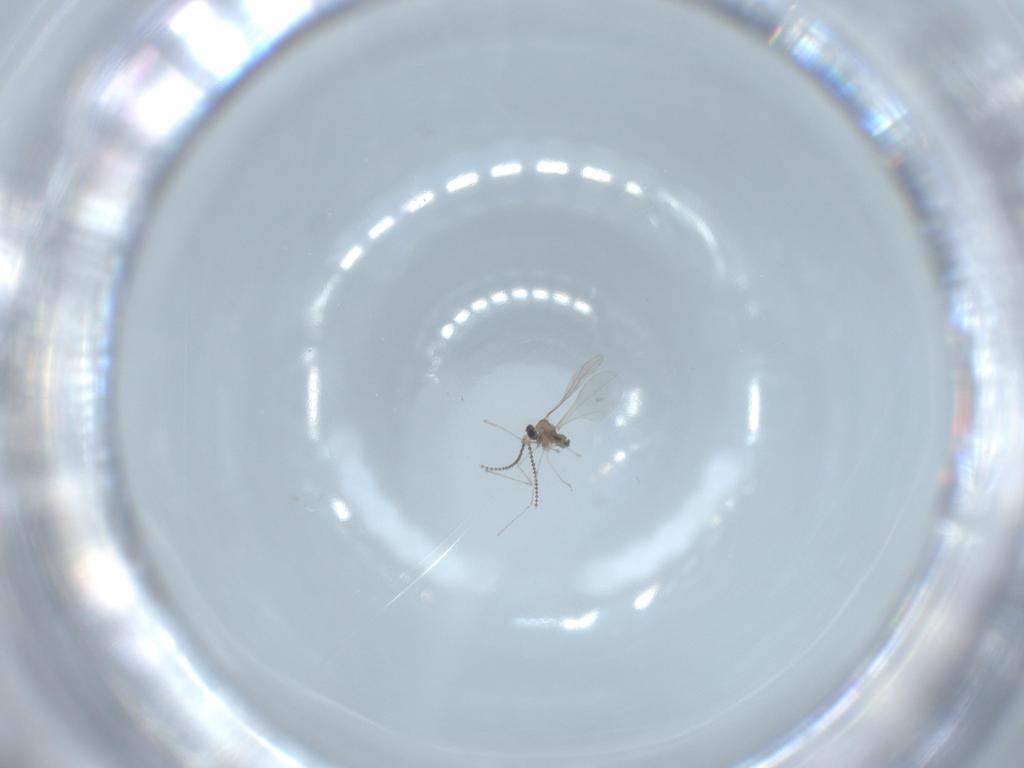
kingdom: Animalia
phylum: Arthropoda
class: Insecta
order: Diptera
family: Cecidomyiidae
